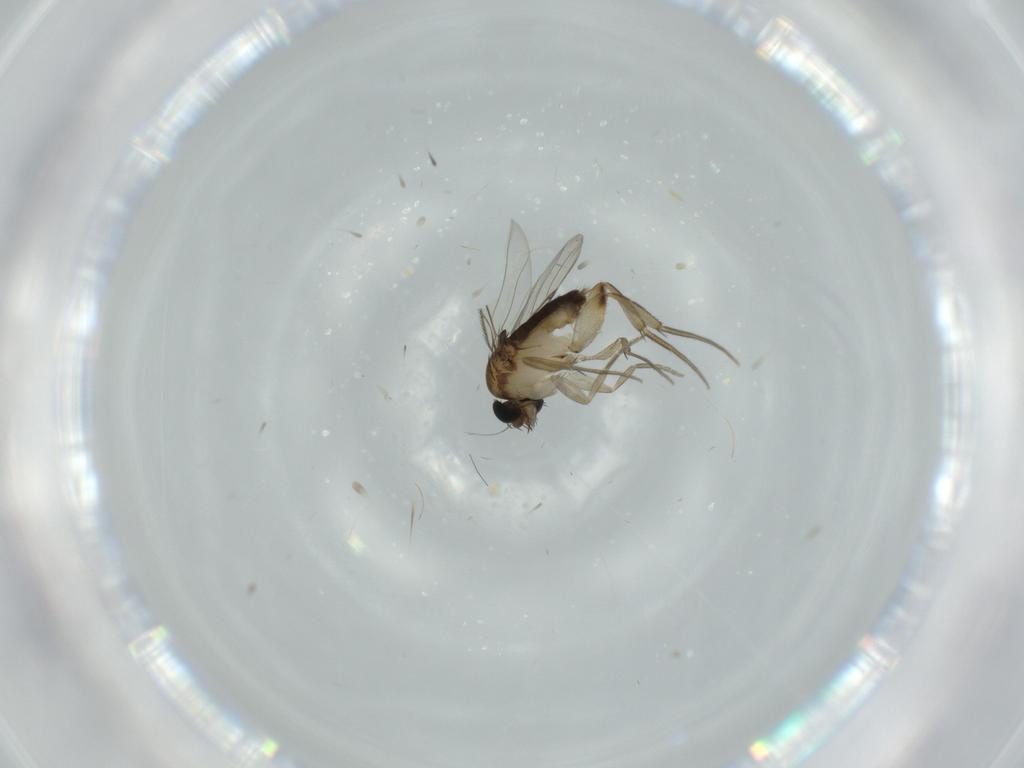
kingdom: Animalia
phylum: Arthropoda
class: Insecta
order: Diptera
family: Phoridae
